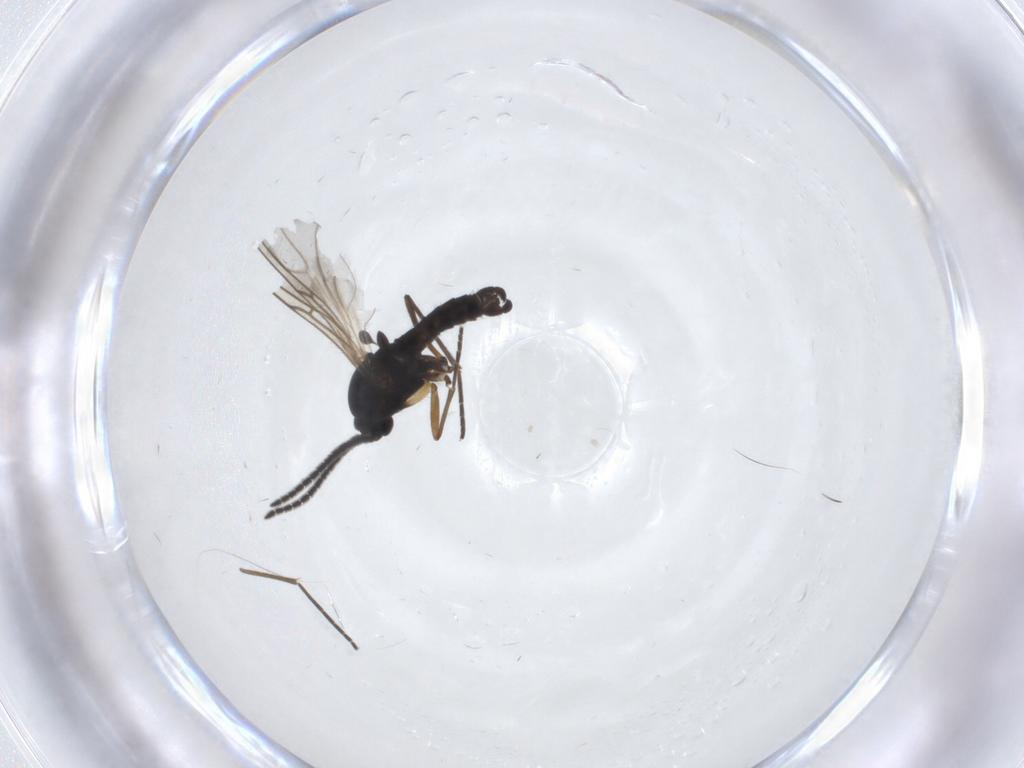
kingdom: Animalia
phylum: Arthropoda
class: Insecta
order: Diptera
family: Sciaridae
